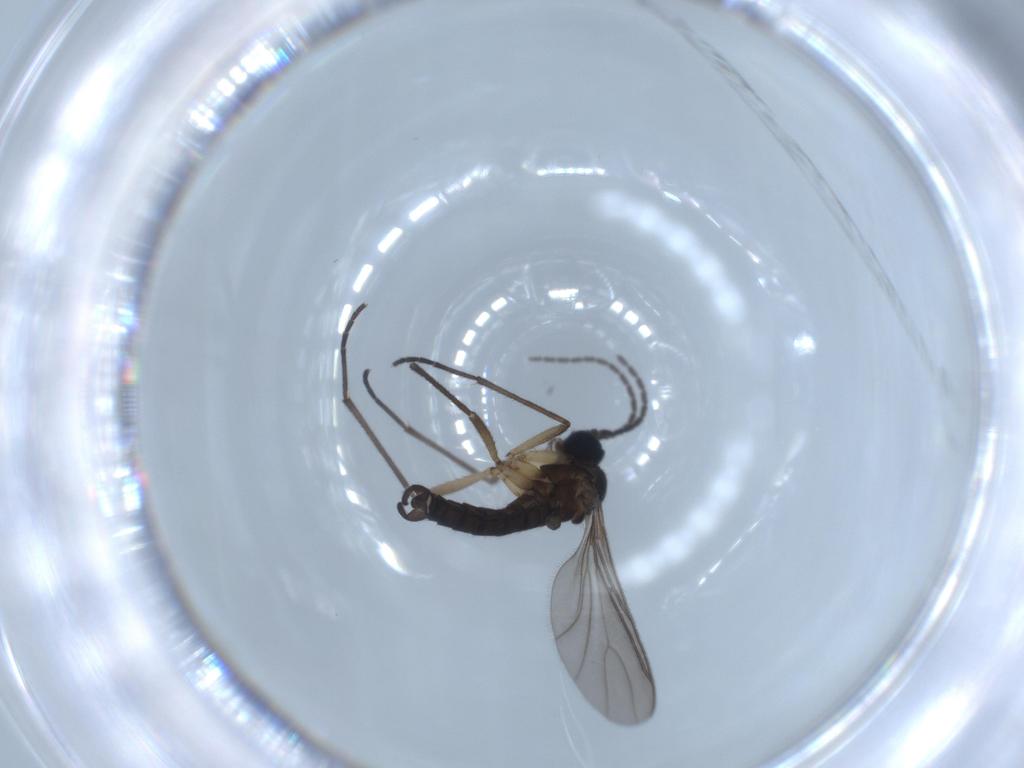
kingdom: Animalia
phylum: Arthropoda
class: Insecta
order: Diptera
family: Sciaridae
